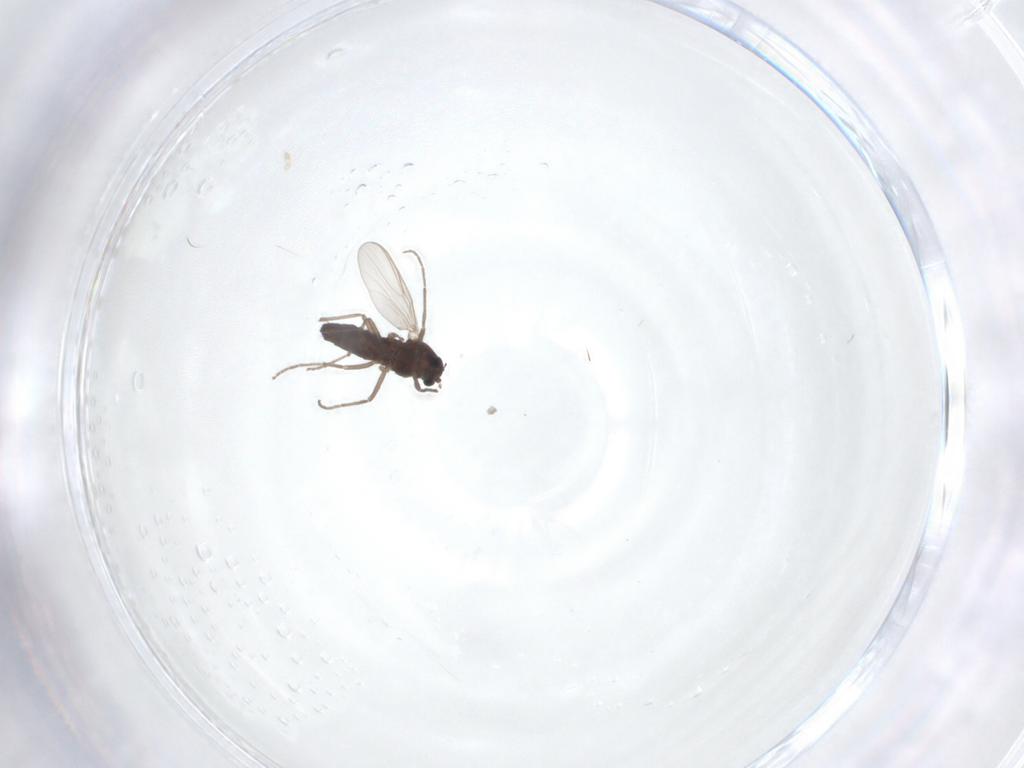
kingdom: Animalia
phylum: Arthropoda
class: Insecta
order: Diptera
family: Chironomidae
